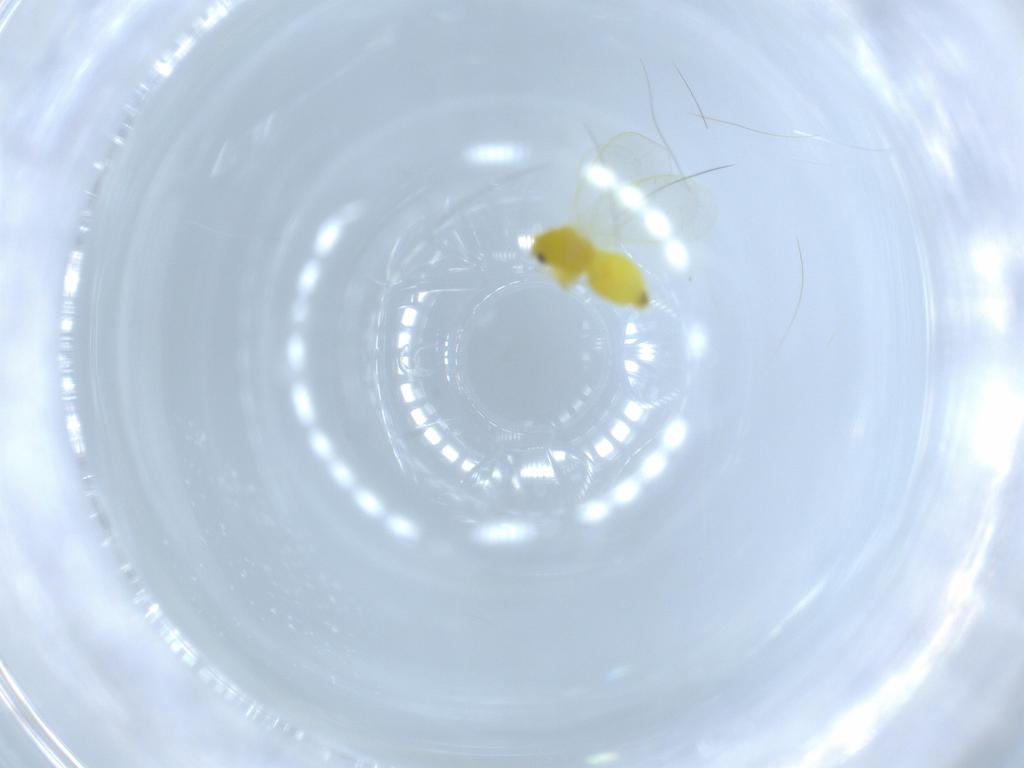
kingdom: Animalia
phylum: Arthropoda
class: Insecta
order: Hemiptera
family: Aleyrodidae
